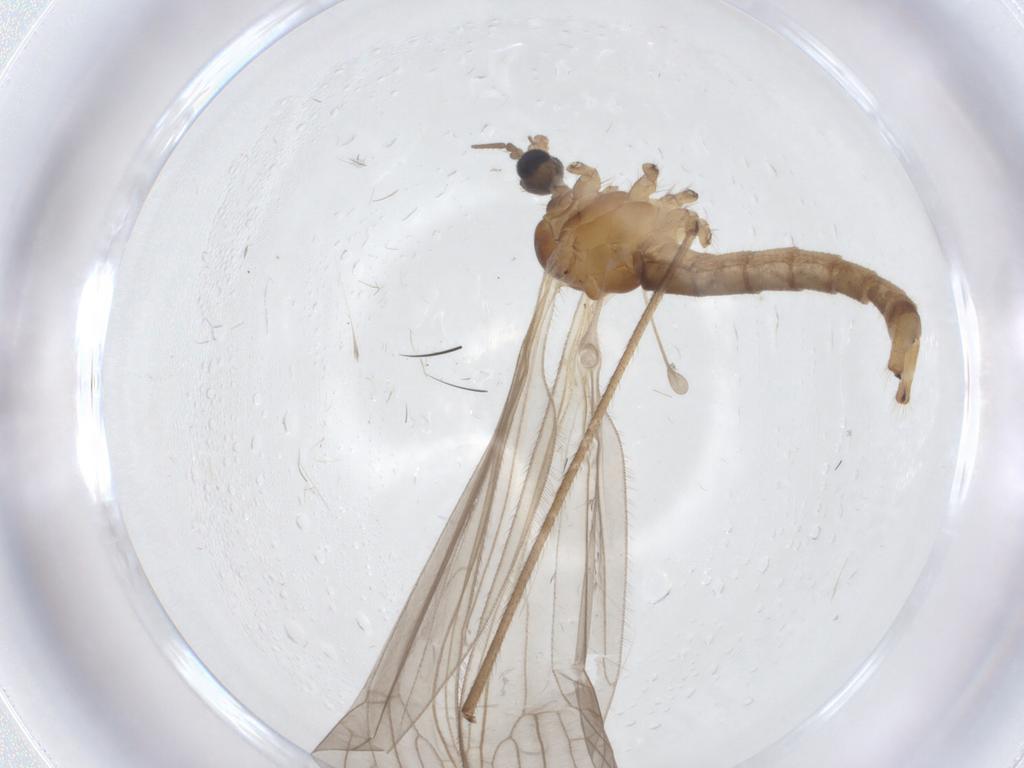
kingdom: Animalia
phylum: Arthropoda
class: Insecta
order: Diptera
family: Limoniidae
